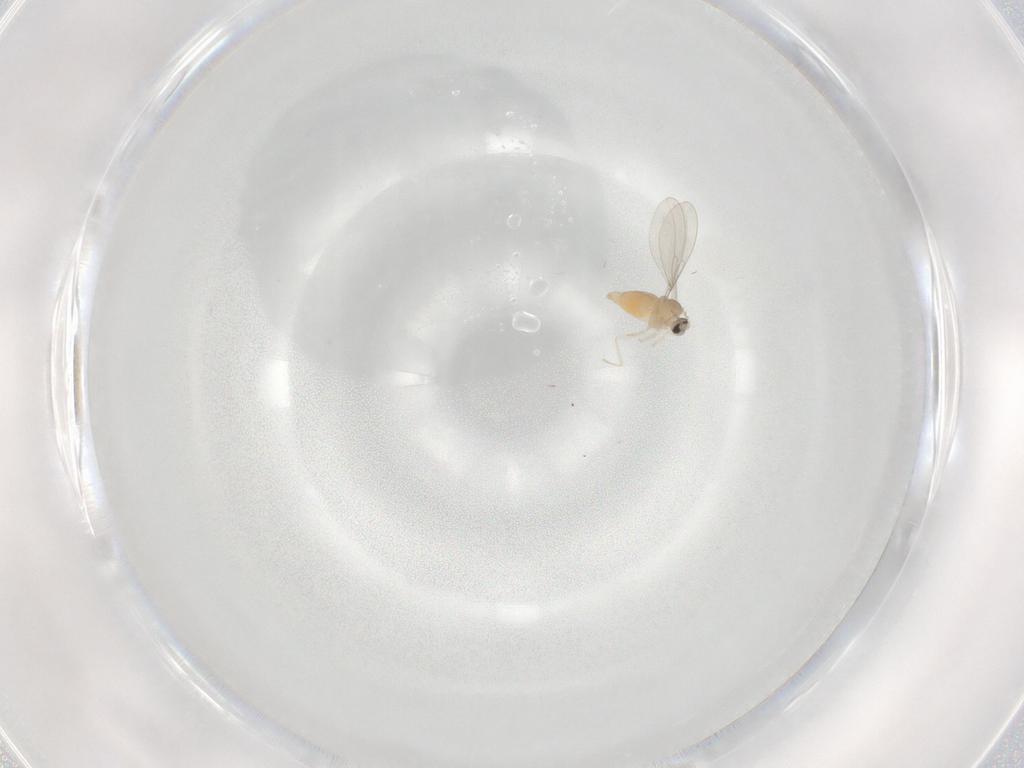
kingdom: Animalia
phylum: Arthropoda
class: Insecta
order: Diptera
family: Cecidomyiidae
